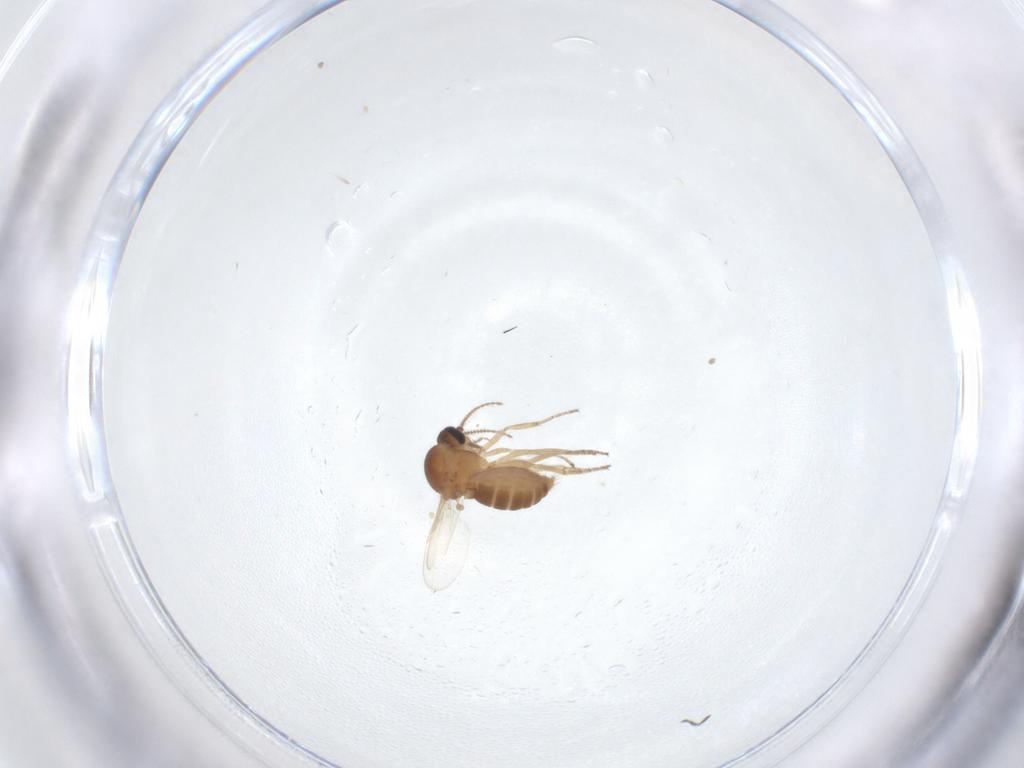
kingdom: Animalia
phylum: Arthropoda
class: Insecta
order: Diptera
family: Ceratopogonidae
